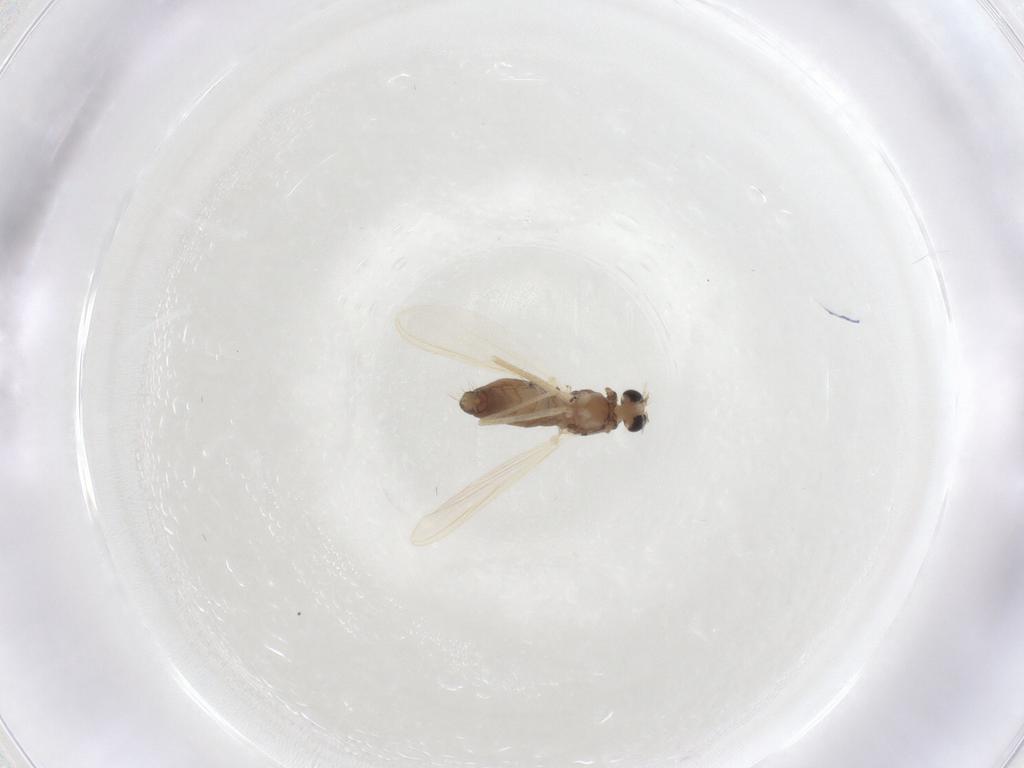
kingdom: Animalia
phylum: Arthropoda
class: Insecta
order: Diptera
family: Chironomidae
